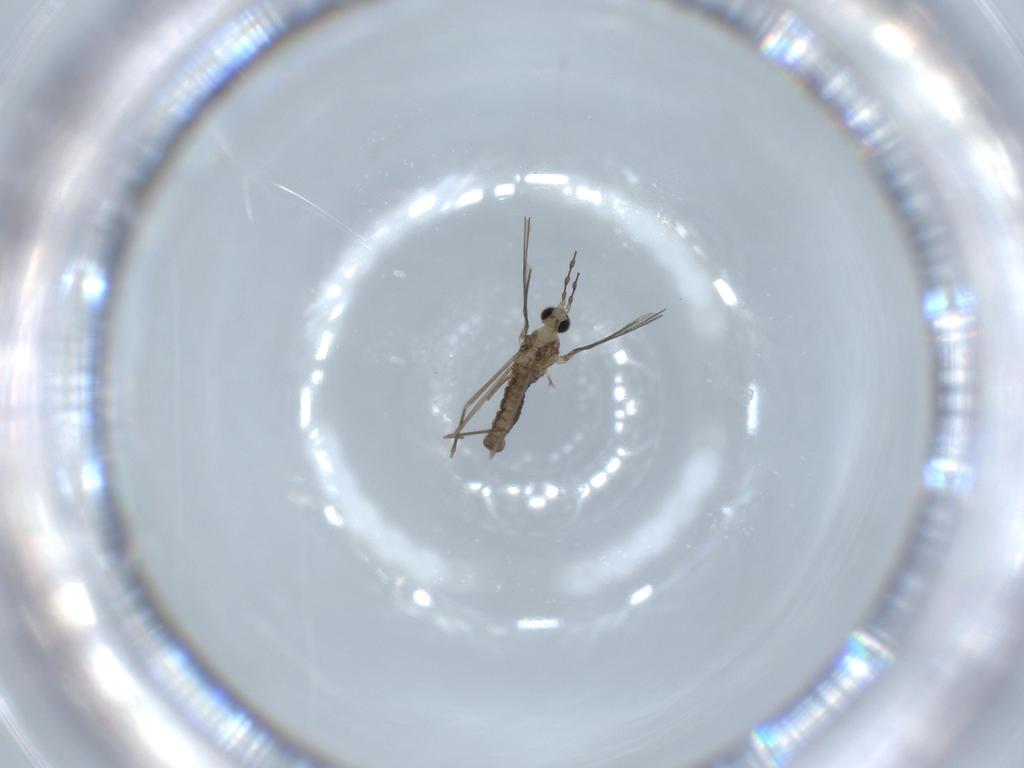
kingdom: Animalia
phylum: Arthropoda
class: Insecta
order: Diptera
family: Cecidomyiidae
